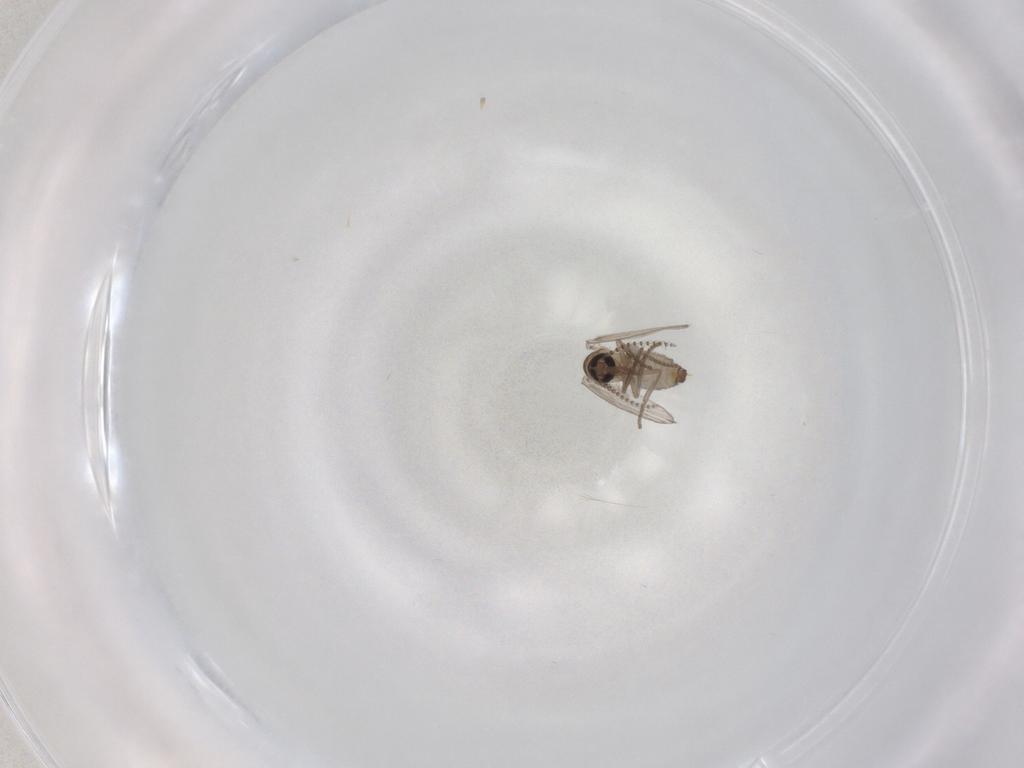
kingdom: Animalia
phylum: Arthropoda
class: Insecta
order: Diptera
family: Psychodidae
